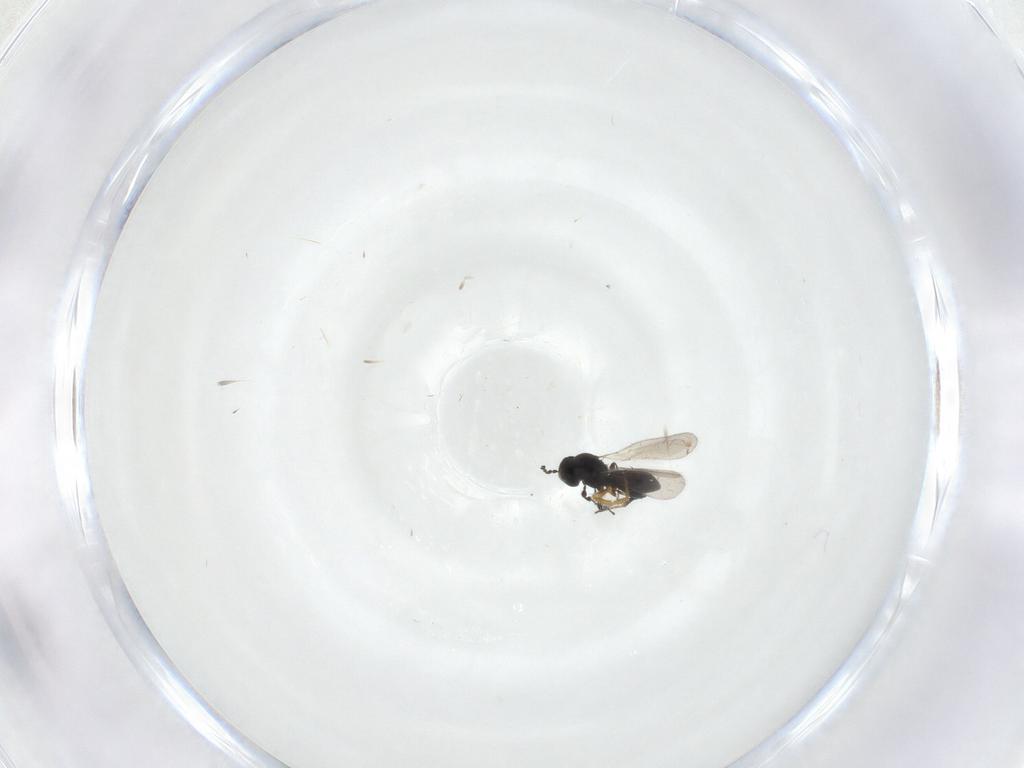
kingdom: Animalia
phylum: Arthropoda
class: Insecta
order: Hymenoptera
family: Platygastridae
